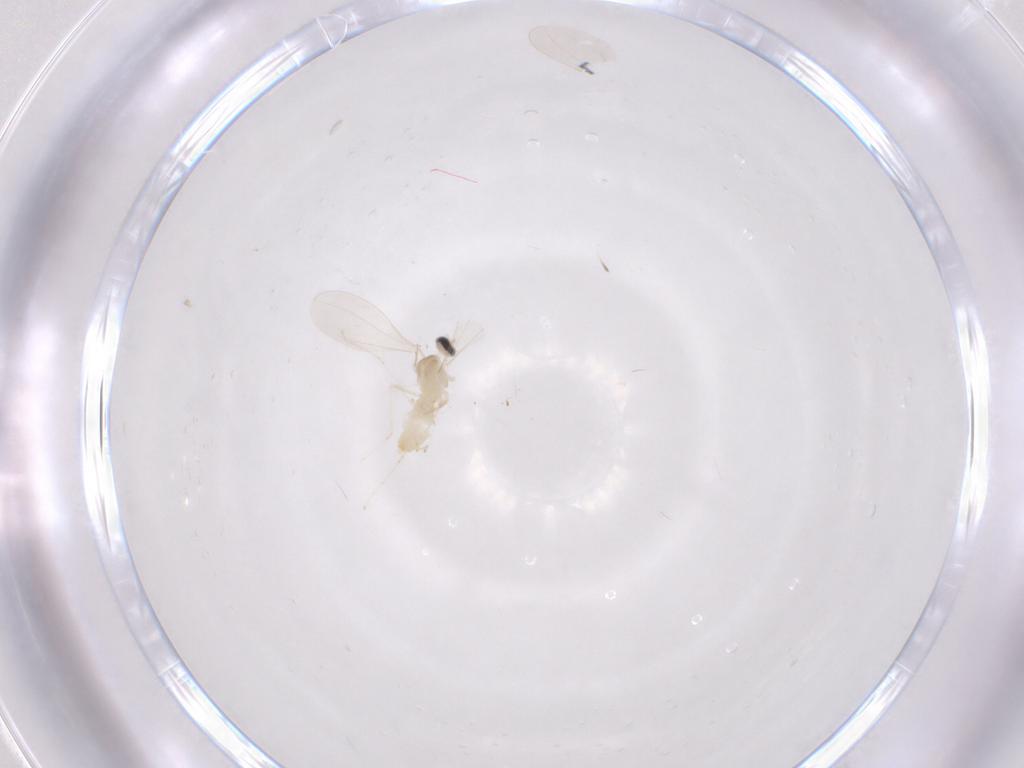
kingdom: Animalia
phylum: Arthropoda
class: Insecta
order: Diptera
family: Cecidomyiidae
